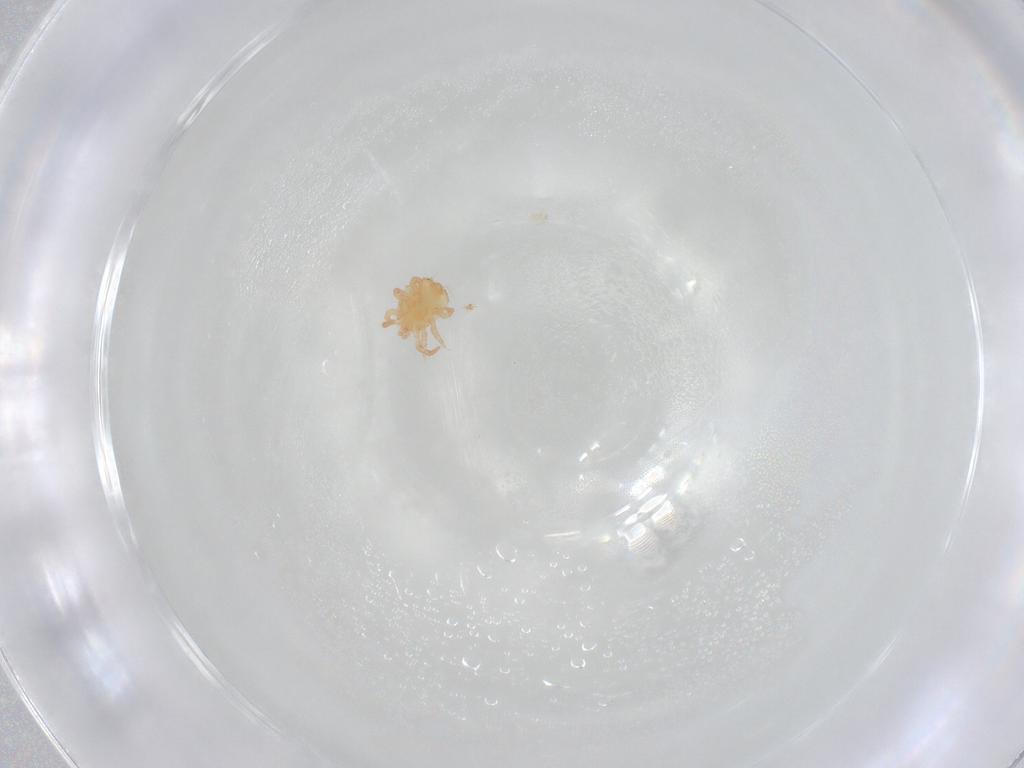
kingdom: Animalia
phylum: Arthropoda
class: Arachnida
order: Mesostigmata
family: Sejidae
